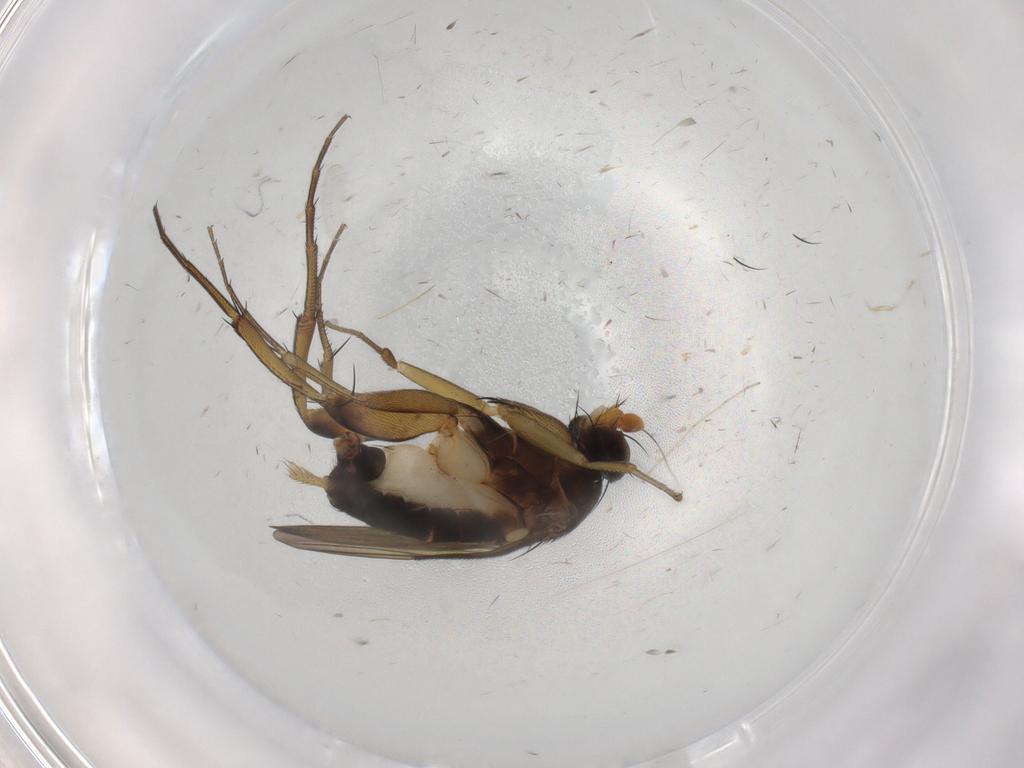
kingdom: Animalia
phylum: Arthropoda
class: Insecta
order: Diptera
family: Phoridae
